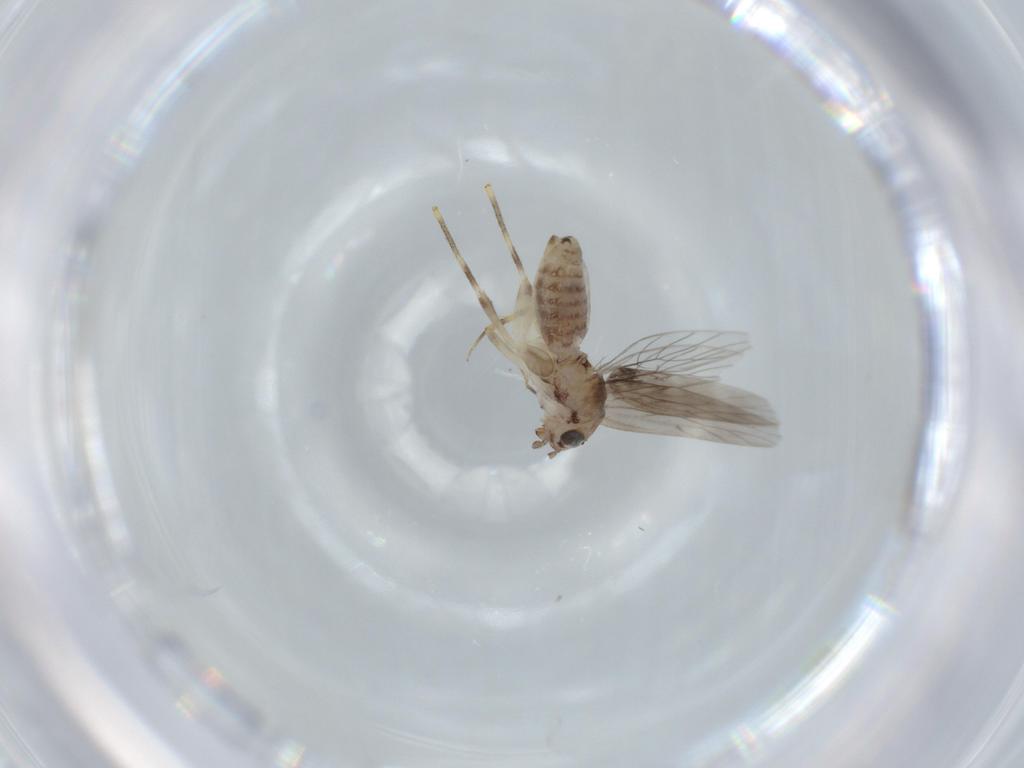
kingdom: Animalia
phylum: Arthropoda
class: Insecta
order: Psocodea
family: Lepidopsocidae
